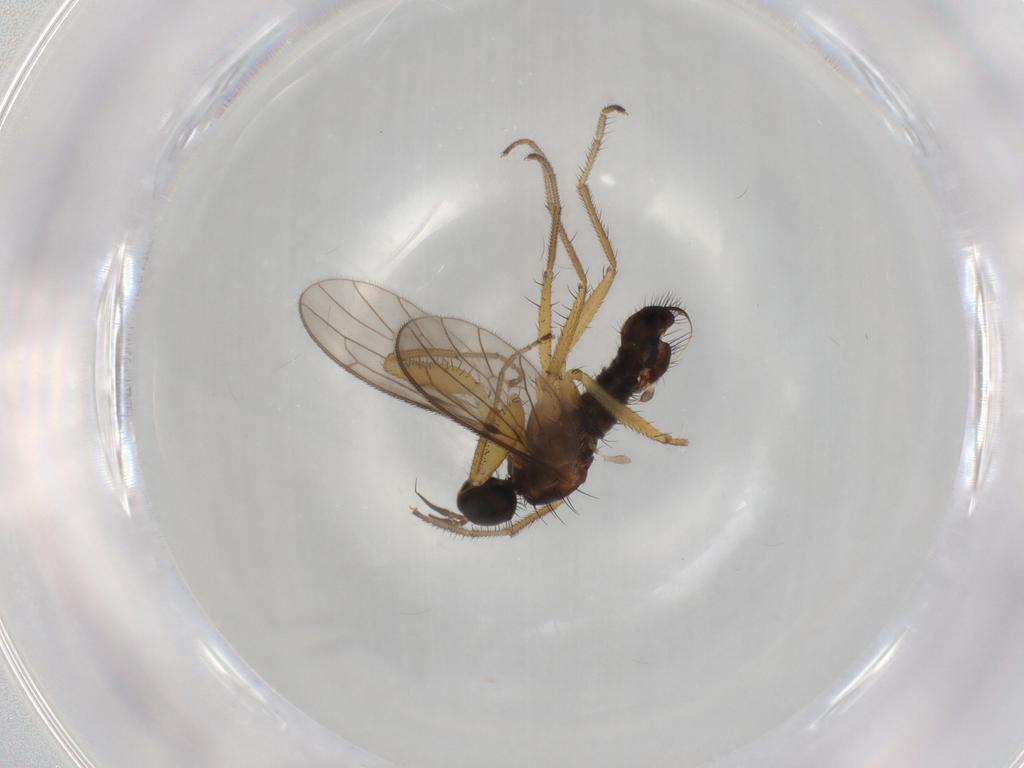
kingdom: Animalia
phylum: Arthropoda
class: Insecta
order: Diptera
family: Empididae
